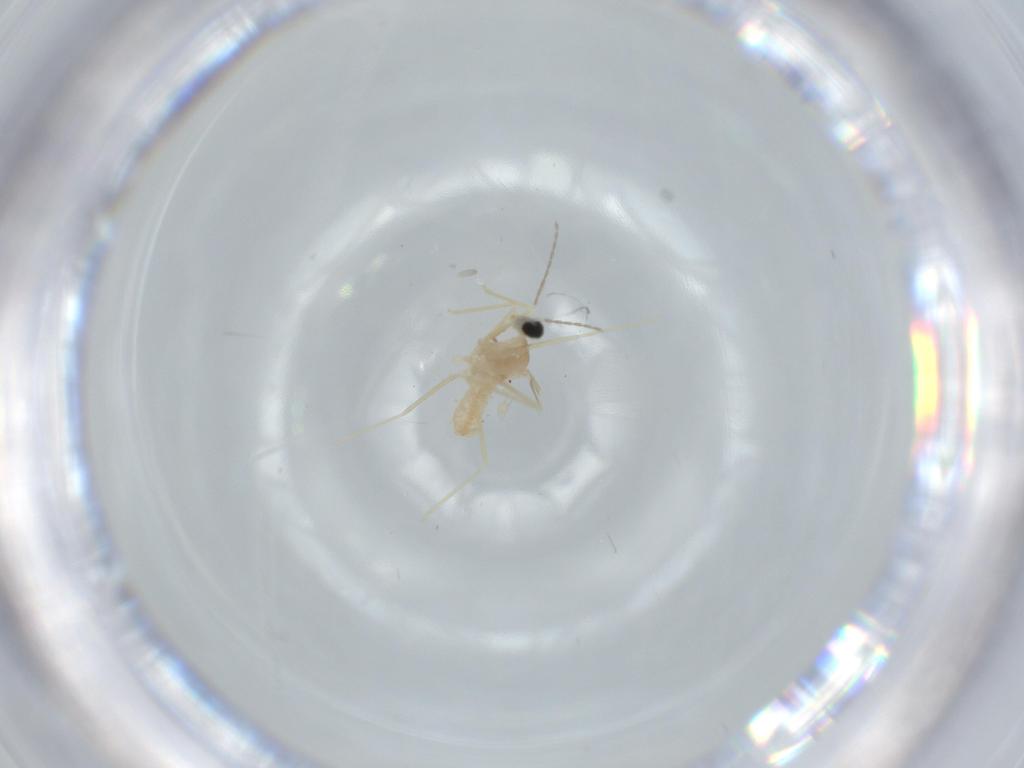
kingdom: Animalia
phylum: Arthropoda
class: Insecta
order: Diptera
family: Cecidomyiidae
